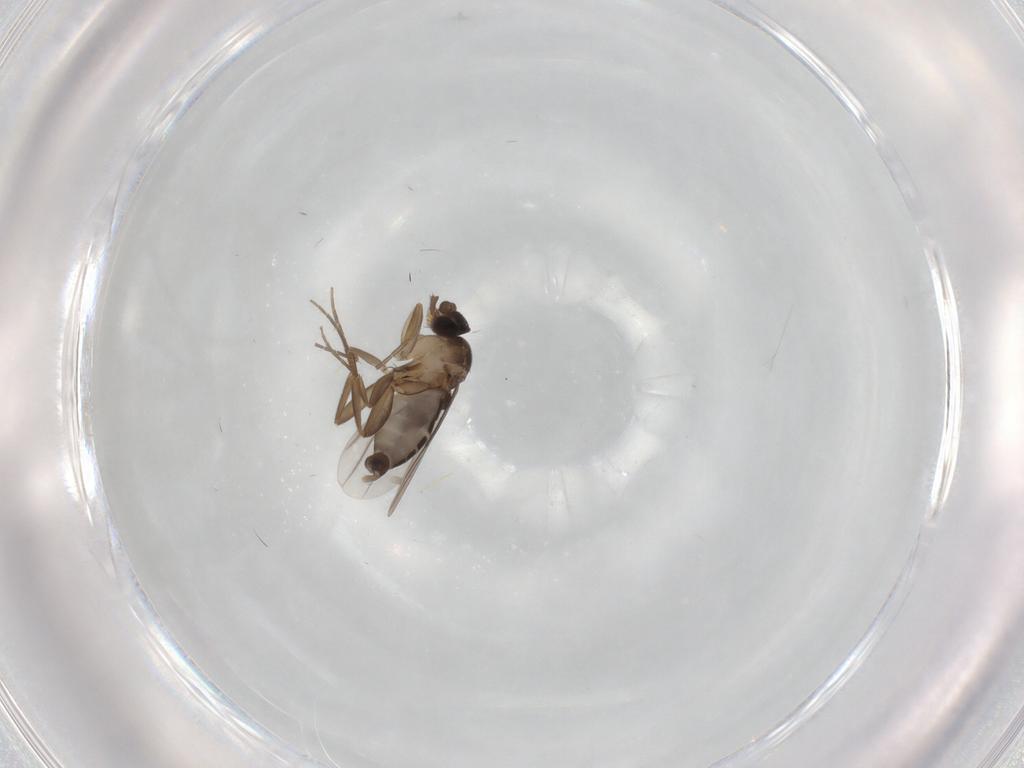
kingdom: Animalia
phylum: Arthropoda
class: Insecta
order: Diptera
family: Phoridae
